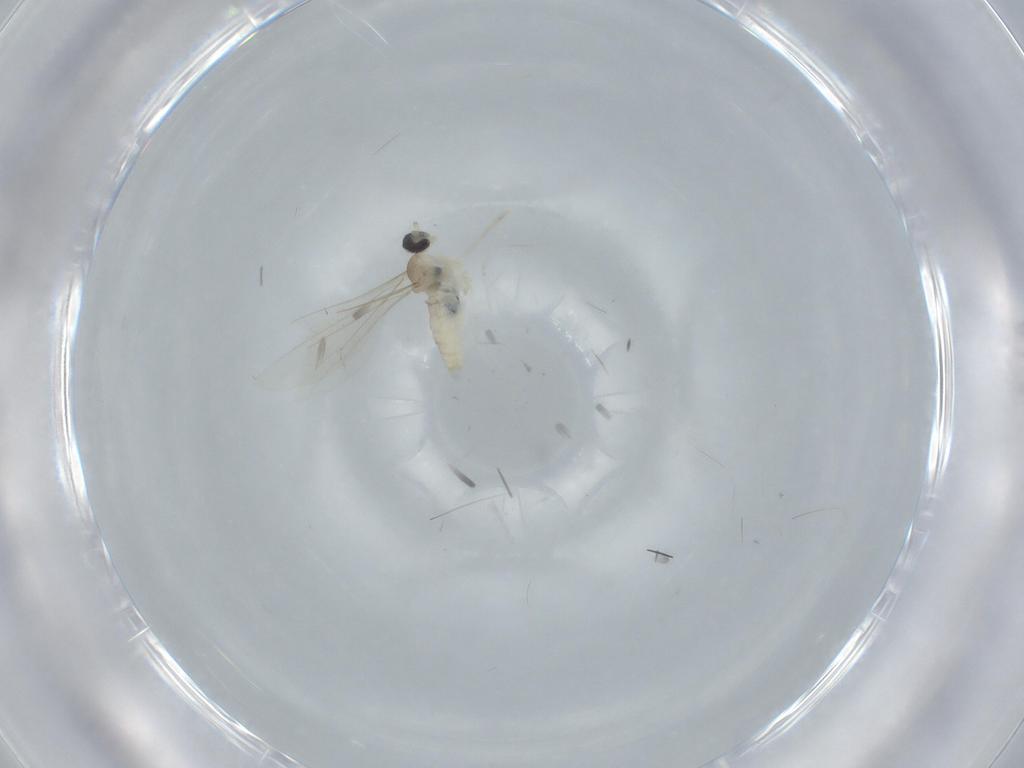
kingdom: Animalia
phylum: Arthropoda
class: Insecta
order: Diptera
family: Cecidomyiidae
